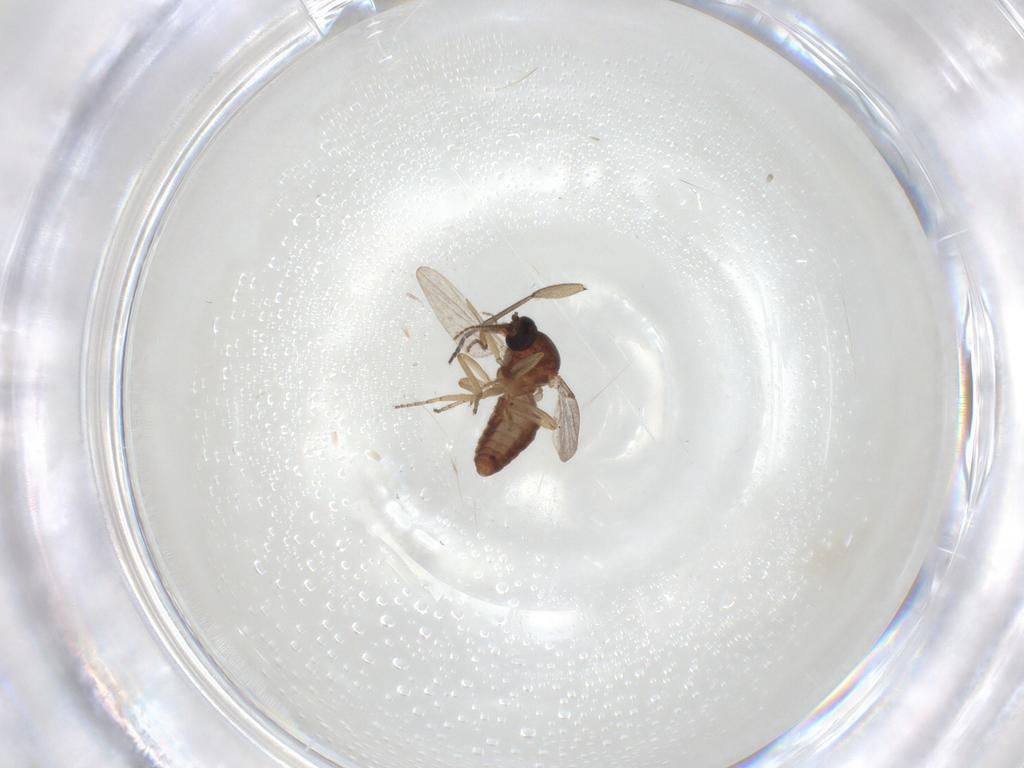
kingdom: Animalia
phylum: Arthropoda
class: Insecta
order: Diptera
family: Ceratopogonidae
